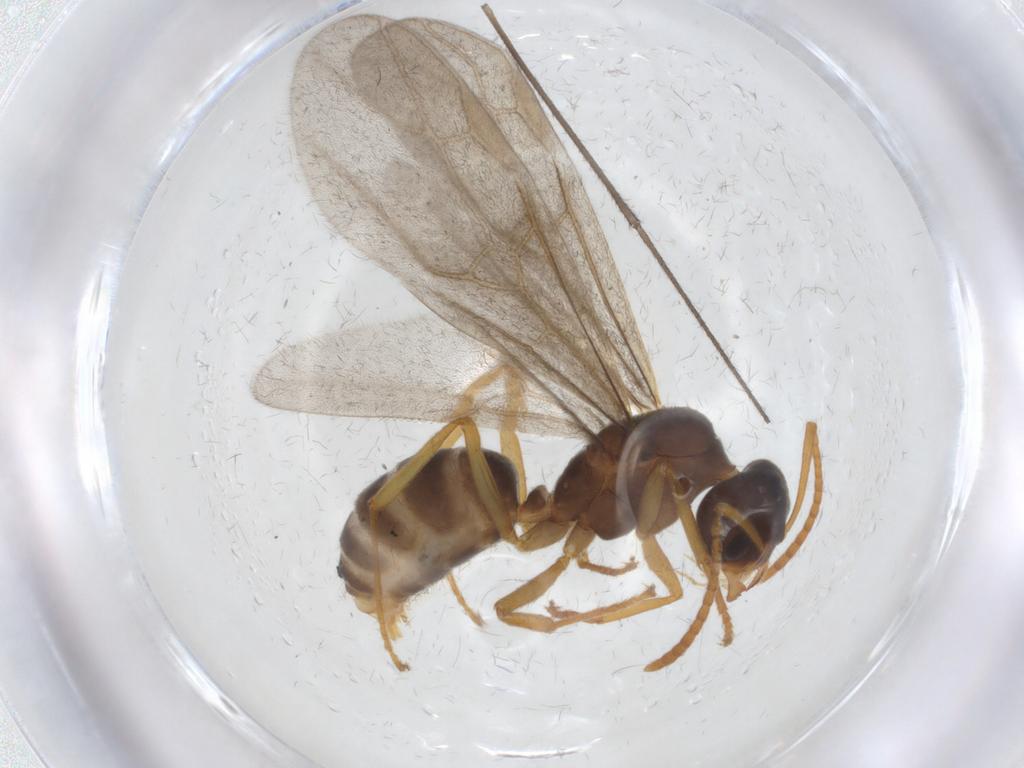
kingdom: Animalia
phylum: Arthropoda
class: Insecta
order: Hymenoptera
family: Formicidae
